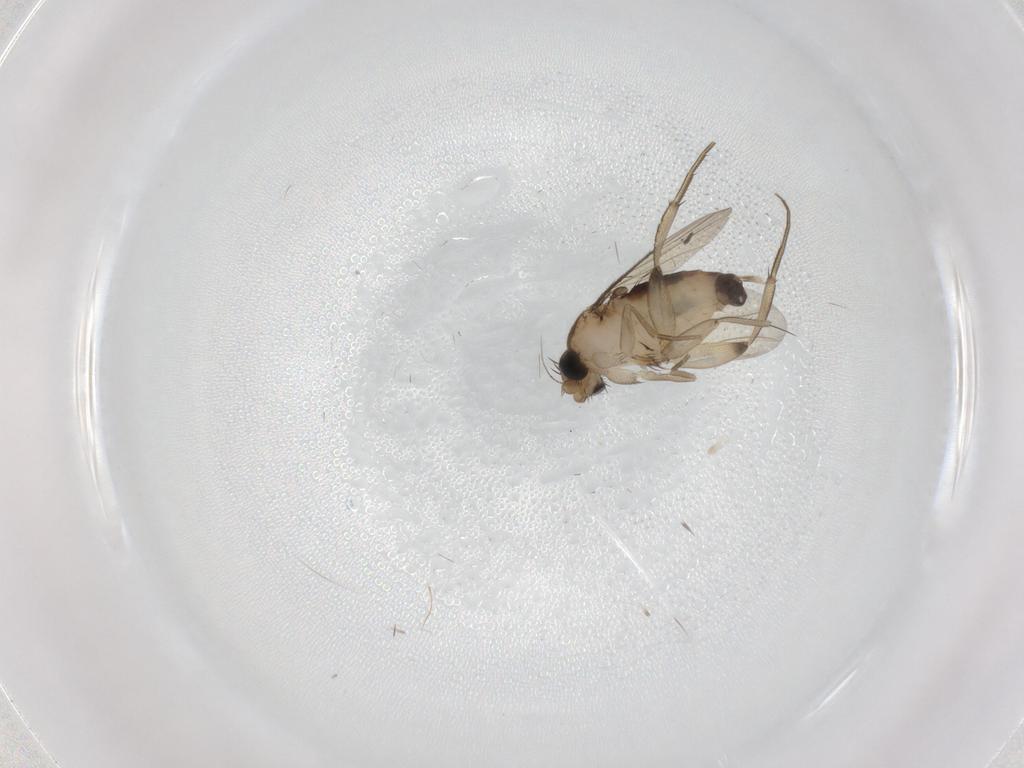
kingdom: Animalia
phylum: Arthropoda
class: Insecta
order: Diptera
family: Phoridae
